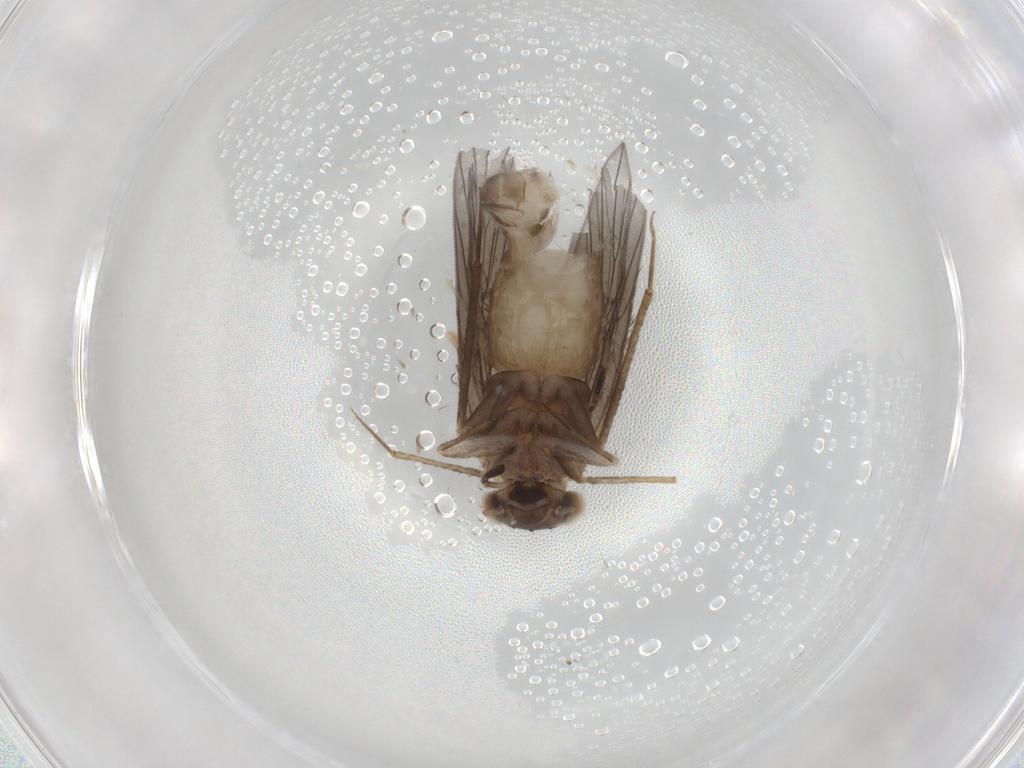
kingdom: Animalia
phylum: Arthropoda
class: Insecta
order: Psocodea
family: Lepidopsocidae
